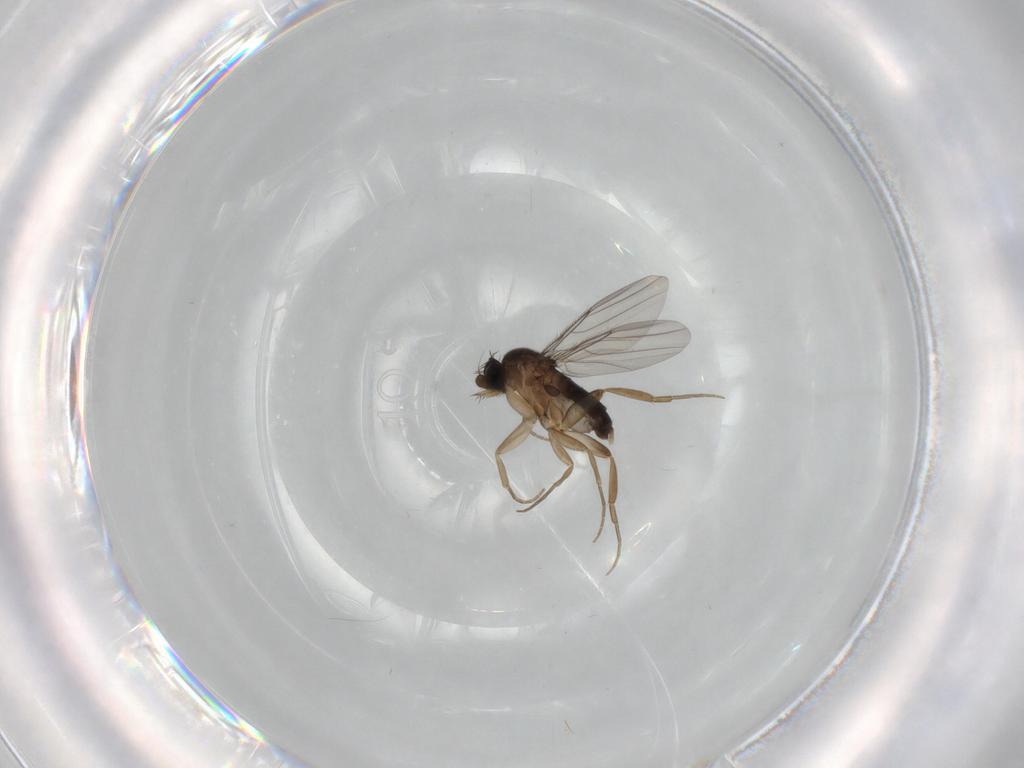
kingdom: Animalia
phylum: Arthropoda
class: Insecta
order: Diptera
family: Phoridae
